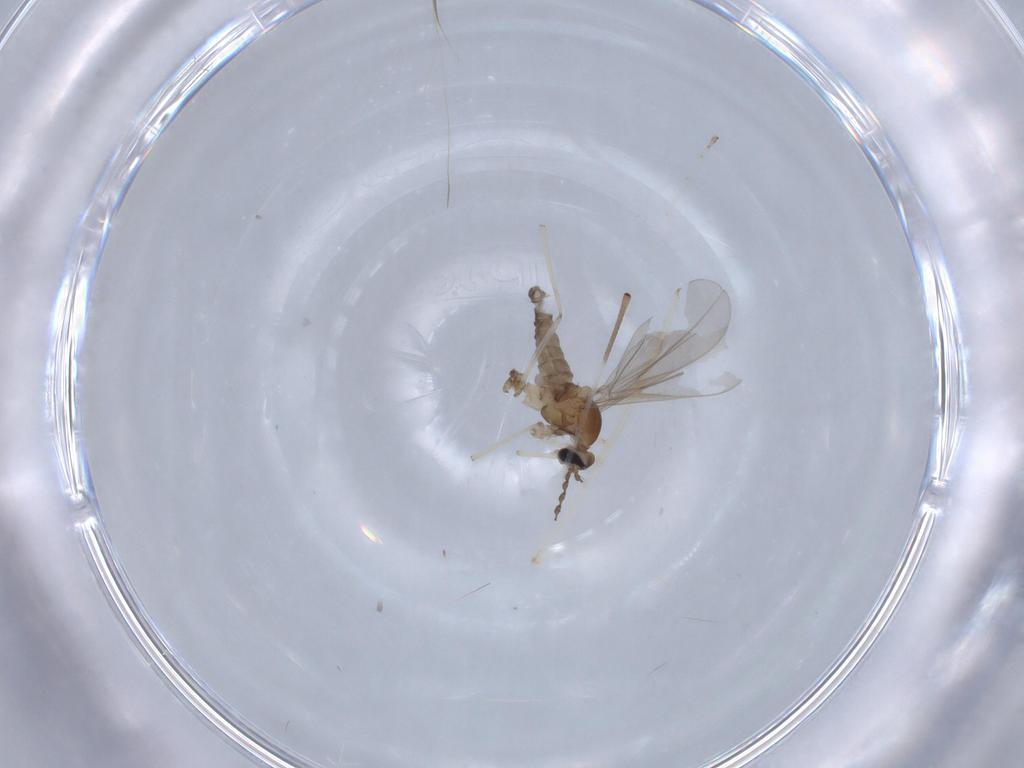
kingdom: Animalia
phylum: Arthropoda
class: Insecta
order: Diptera
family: Cecidomyiidae
